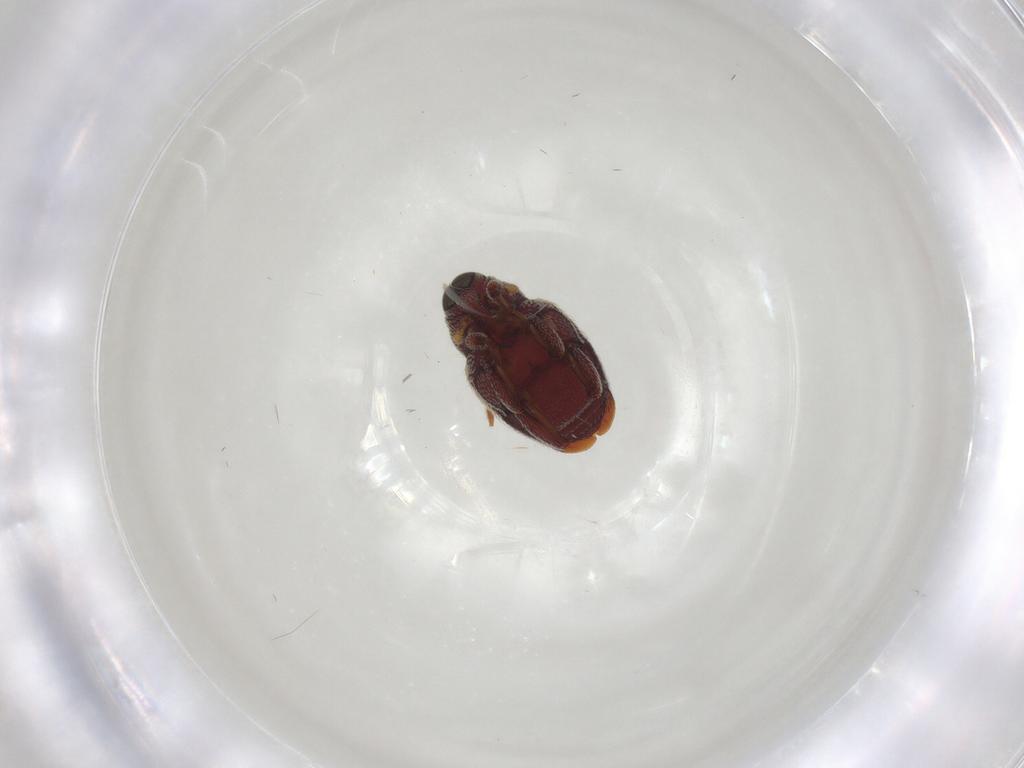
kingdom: Animalia
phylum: Arthropoda
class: Insecta
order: Coleoptera
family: Curculionidae
